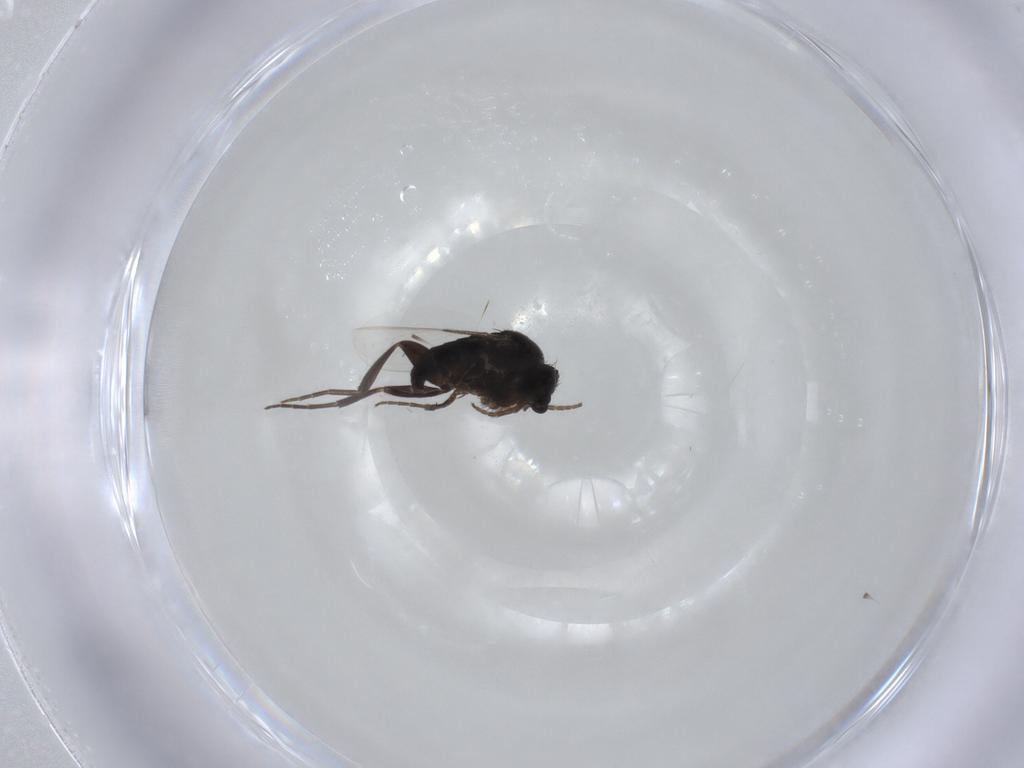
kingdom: Animalia
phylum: Arthropoda
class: Insecta
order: Diptera
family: Phoridae
